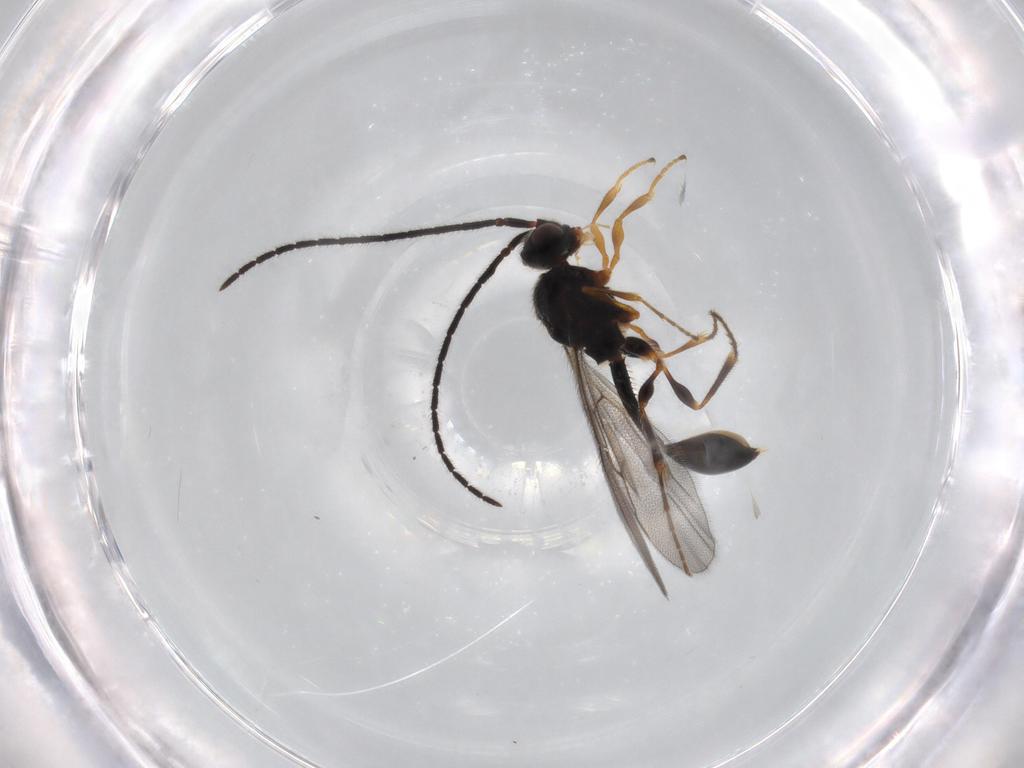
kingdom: Animalia
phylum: Arthropoda
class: Insecta
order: Hymenoptera
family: Diapriidae
